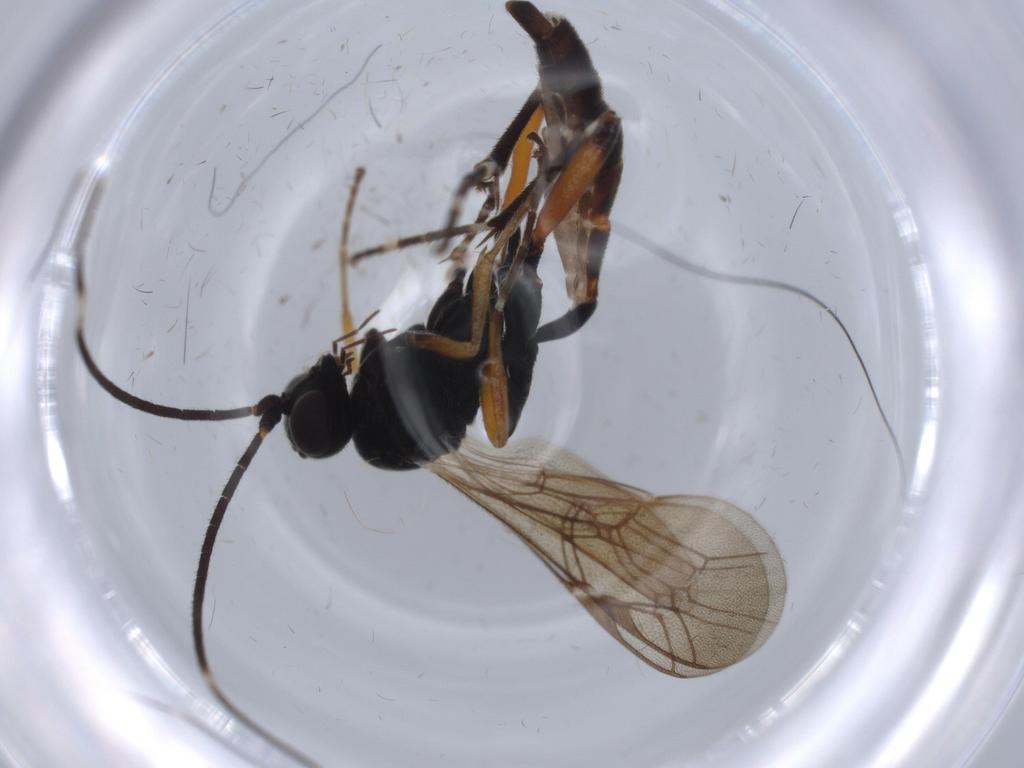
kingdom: Animalia
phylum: Arthropoda
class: Insecta
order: Hymenoptera
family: Ichneumonidae
